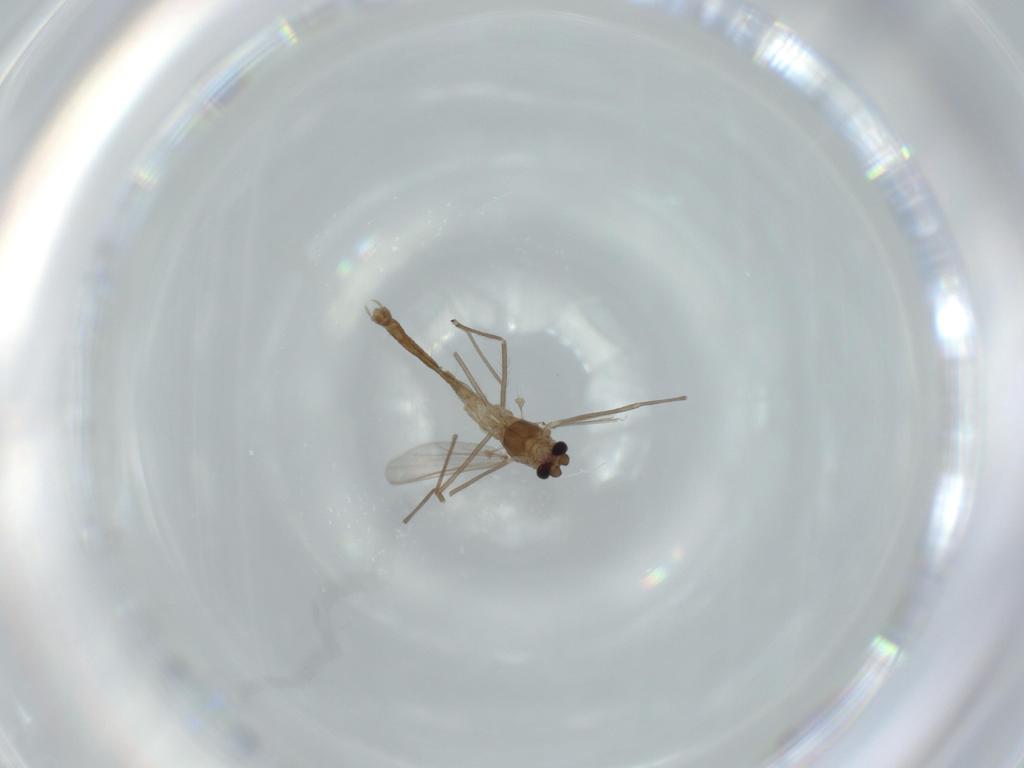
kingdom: Animalia
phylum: Arthropoda
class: Insecta
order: Diptera
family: Chironomidae
